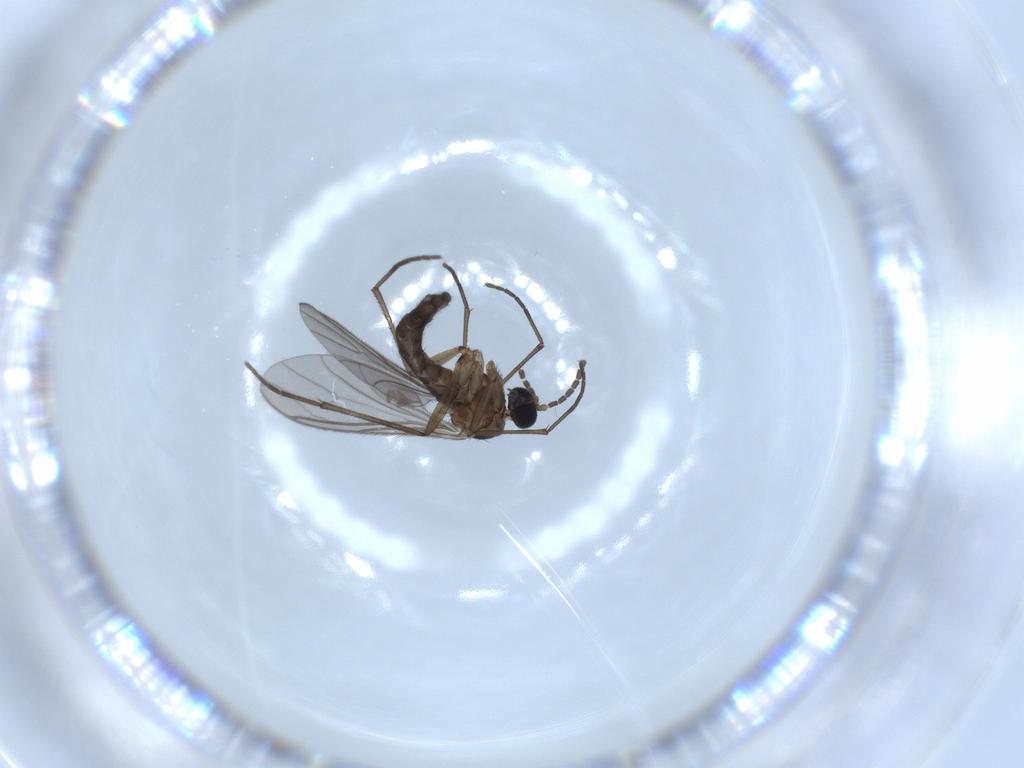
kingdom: Animalia
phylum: Arthropoda
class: Insecta
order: Diptera
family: Sciaridae
